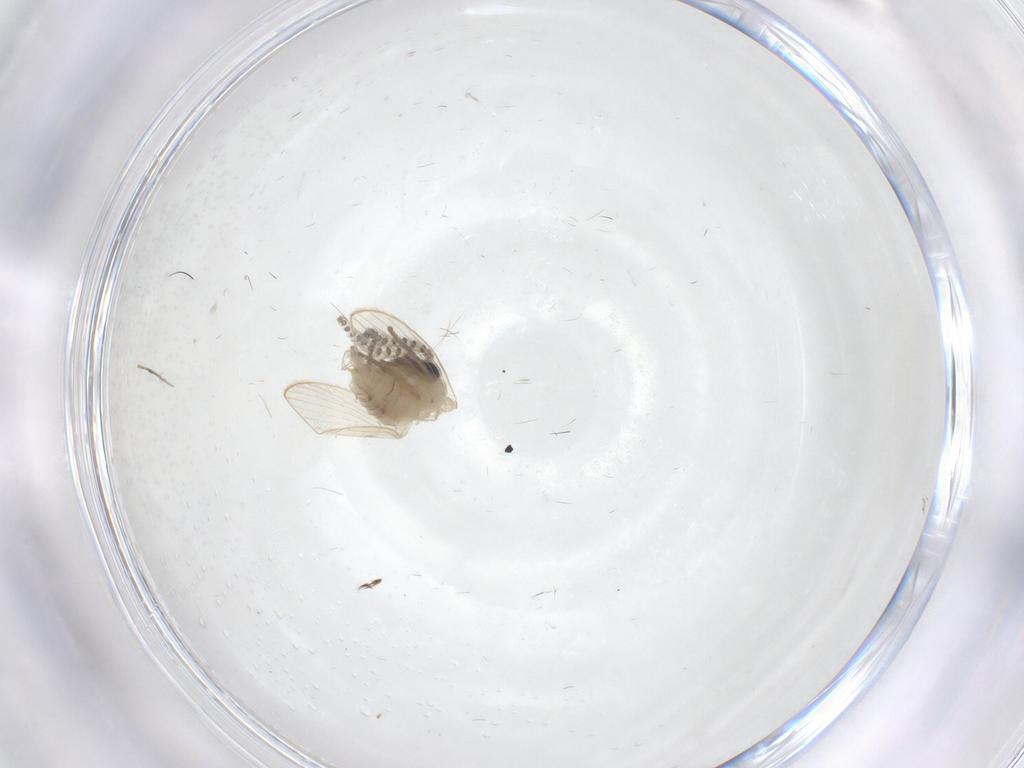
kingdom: Animalia
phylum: Arthropoda
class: Insecta
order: Diptera
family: Psychodidae
